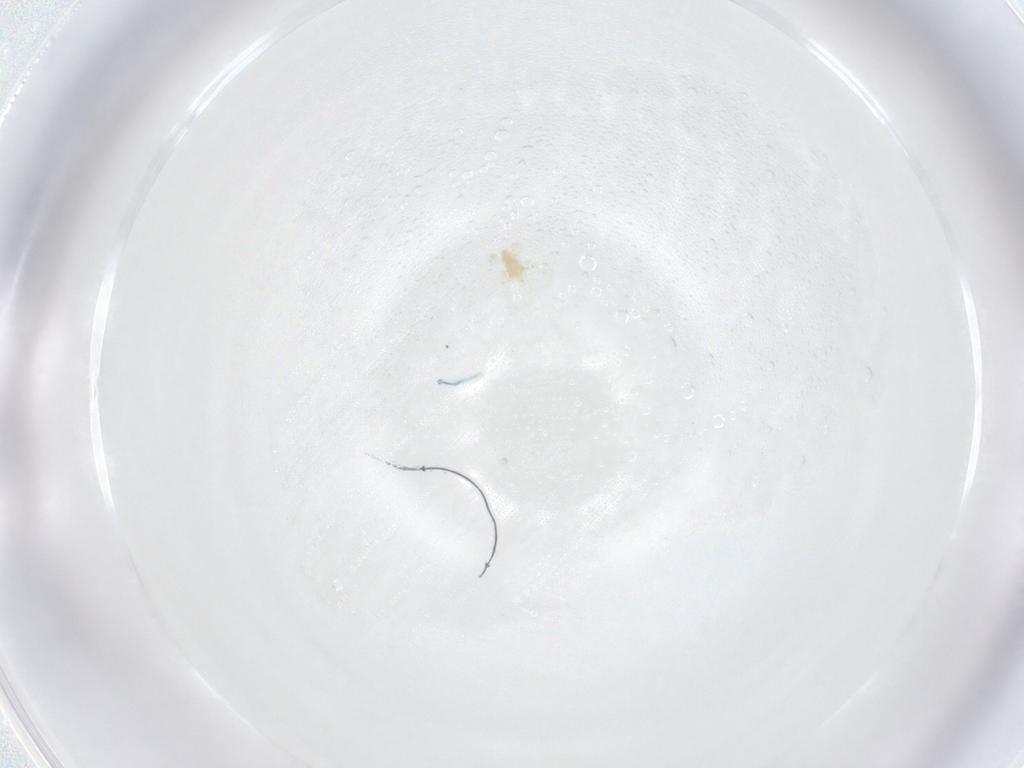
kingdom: Animalia
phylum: Arthropoda
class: Arachnida
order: Trombidiformes
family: Eupodidae
